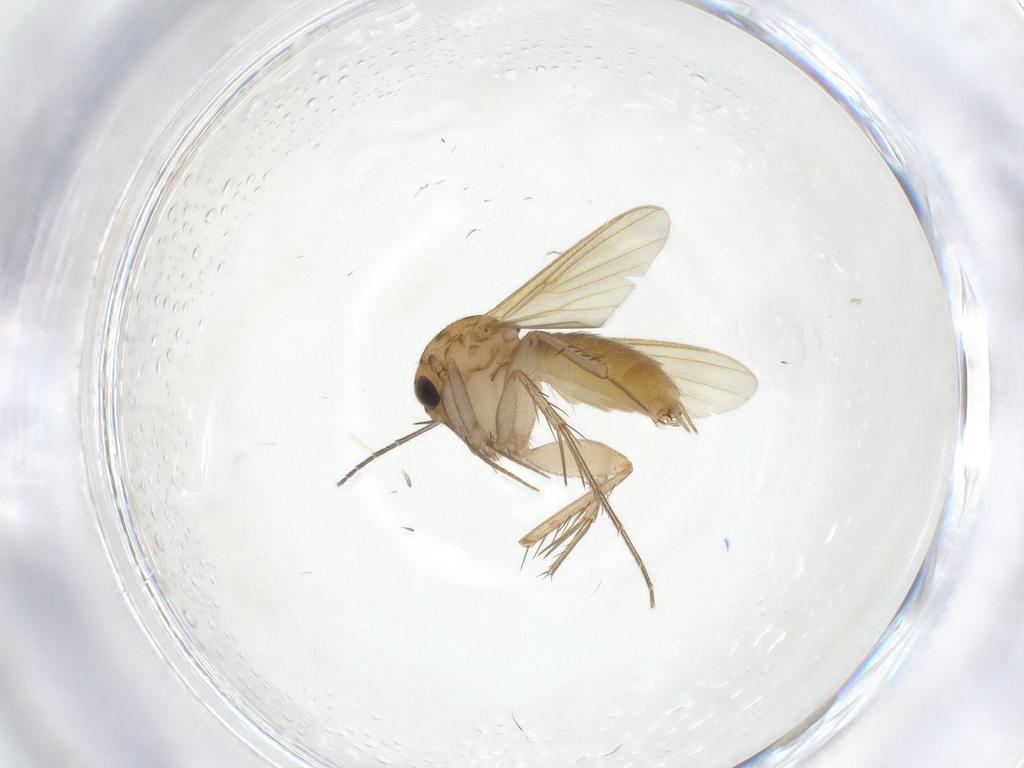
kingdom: Animalia
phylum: Arthropoda
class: Insecta
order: Diptera
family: Mycetophilidae
